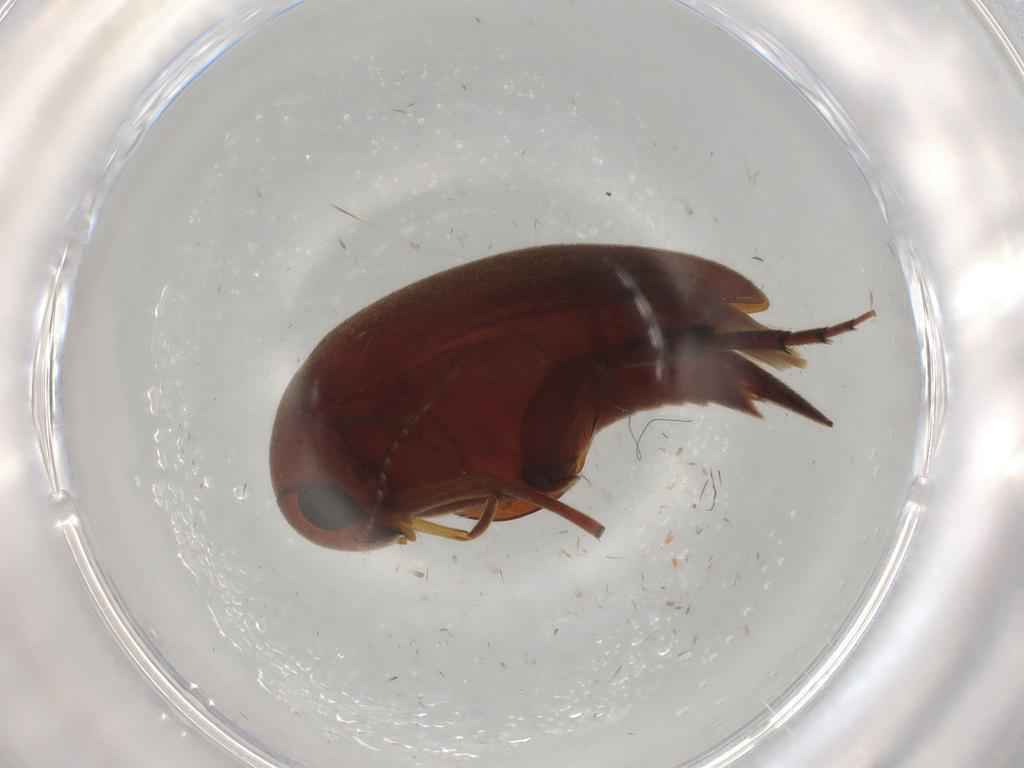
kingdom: Animalia
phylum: Arthropoda
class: Insecta
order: Coleoptera
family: Mordellidae
